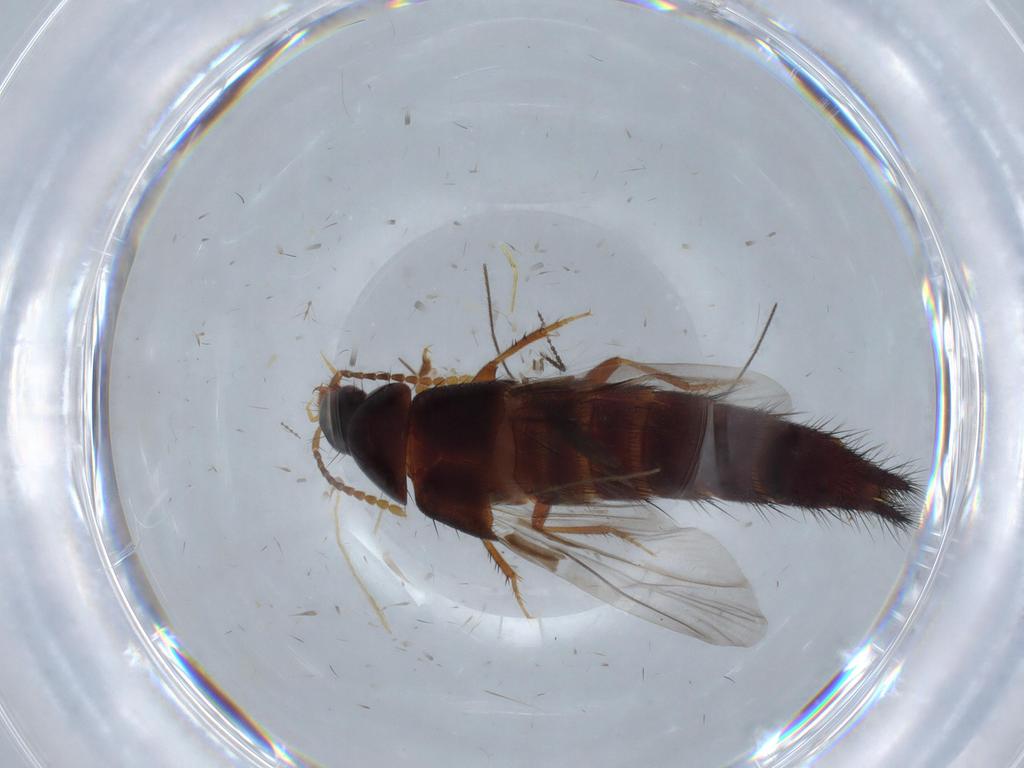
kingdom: Animalia
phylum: Arthropoda
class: Insecta
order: Coleoptera
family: Staphylinidae
